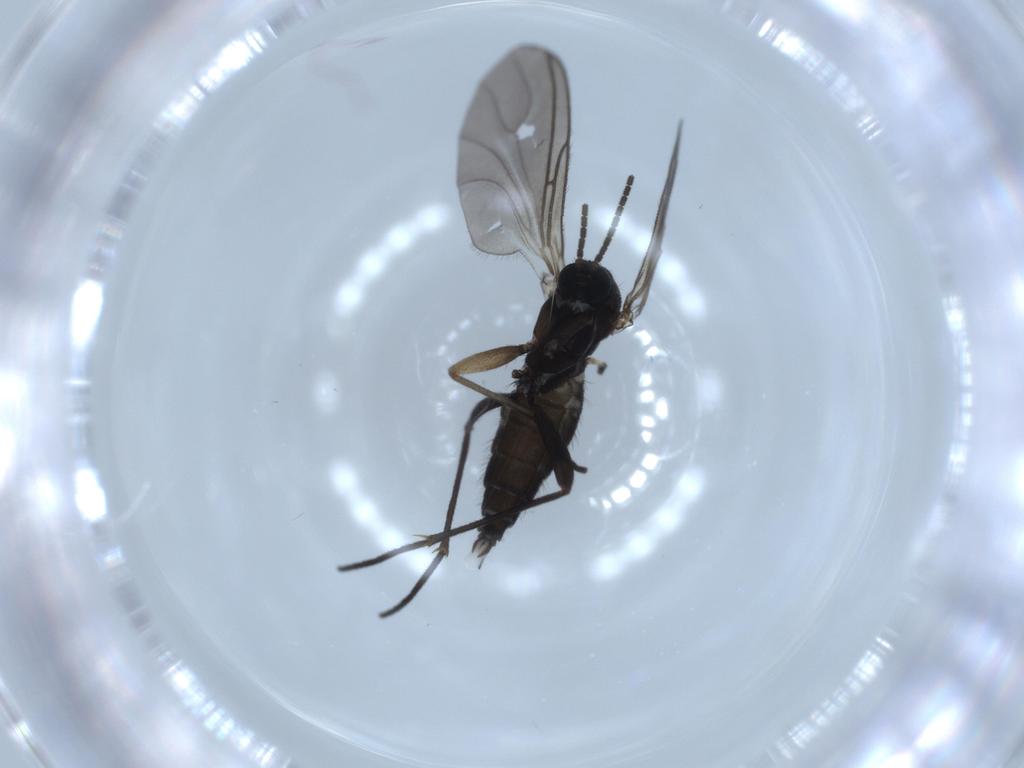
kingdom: Animalia
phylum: Arthropoda
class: Insecta
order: Diptera
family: Sciaridae
